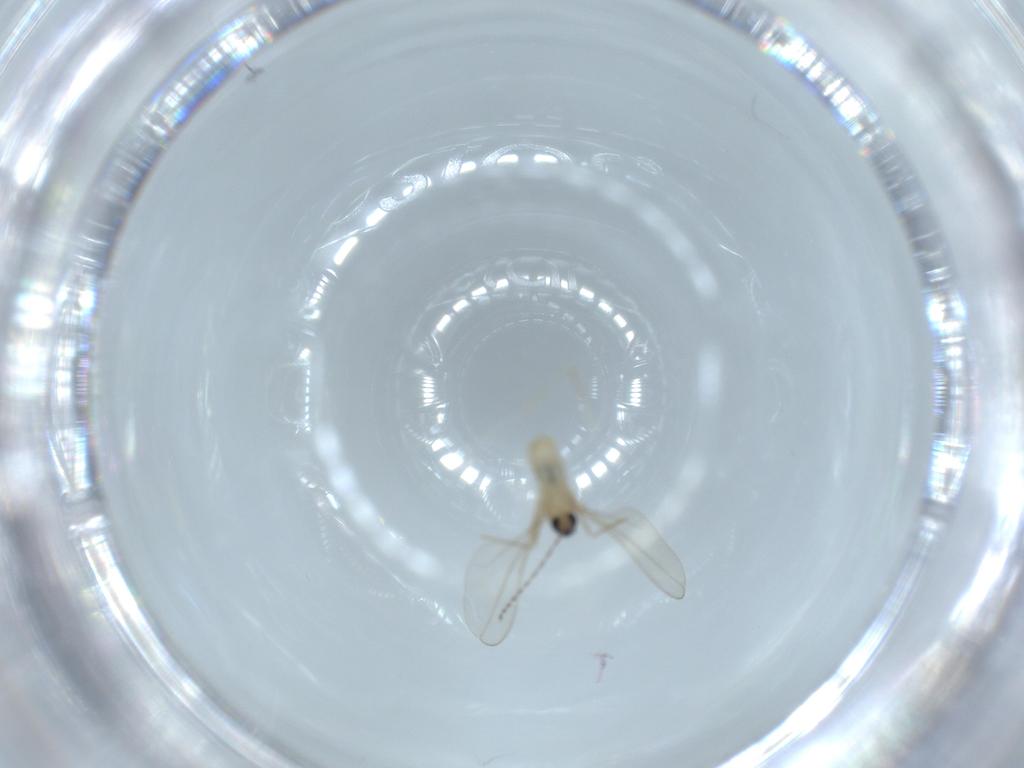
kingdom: Animalia
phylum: Arthropoda
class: Insecta
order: Diptera
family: Cecidomyiidae
